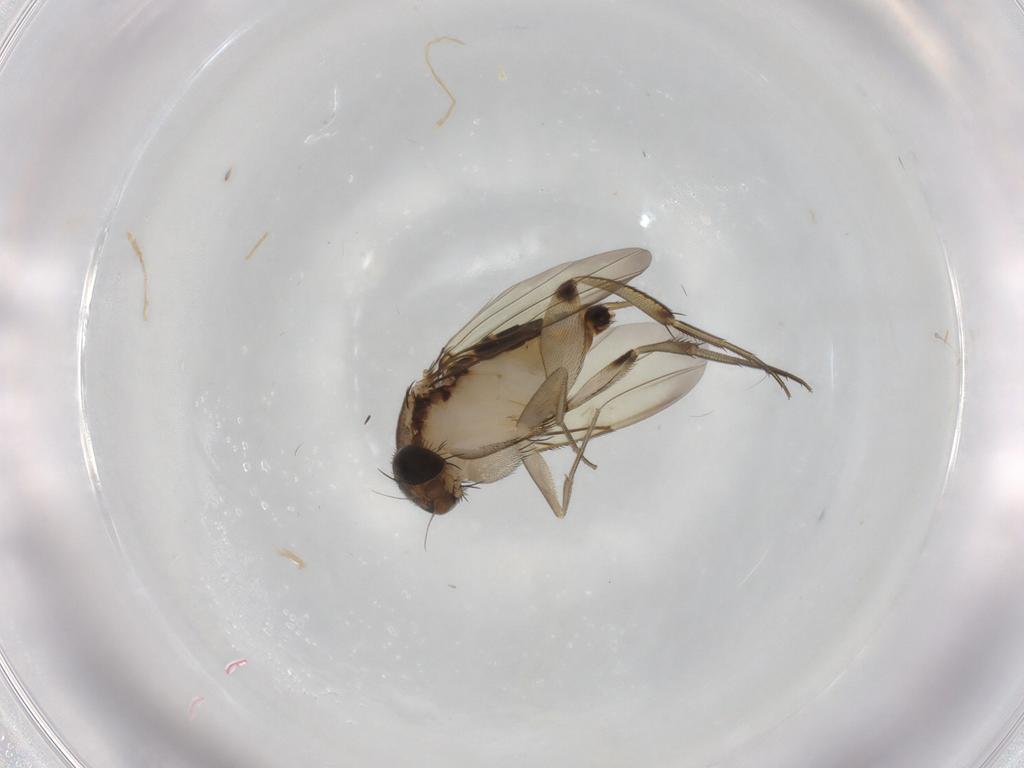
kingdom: Animalia
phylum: Arthropoda
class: Insecta
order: Diptera
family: Phoridae
